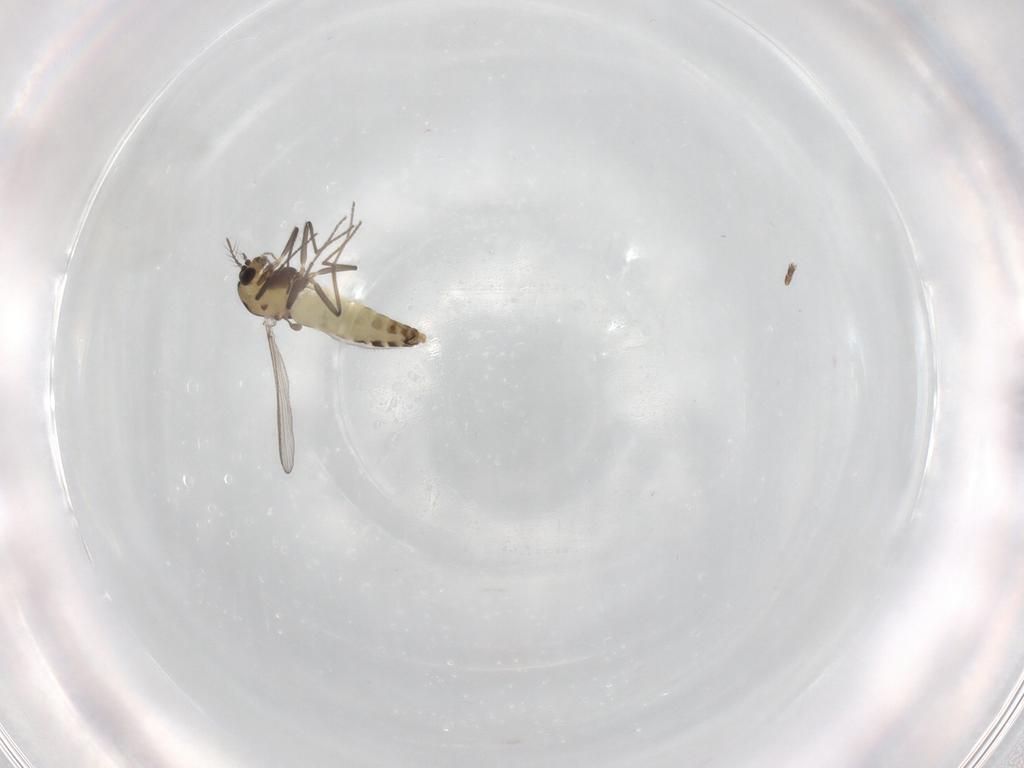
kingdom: Animalia
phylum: Arthropoda
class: Insecta
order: Diptera
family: Chironomidae
